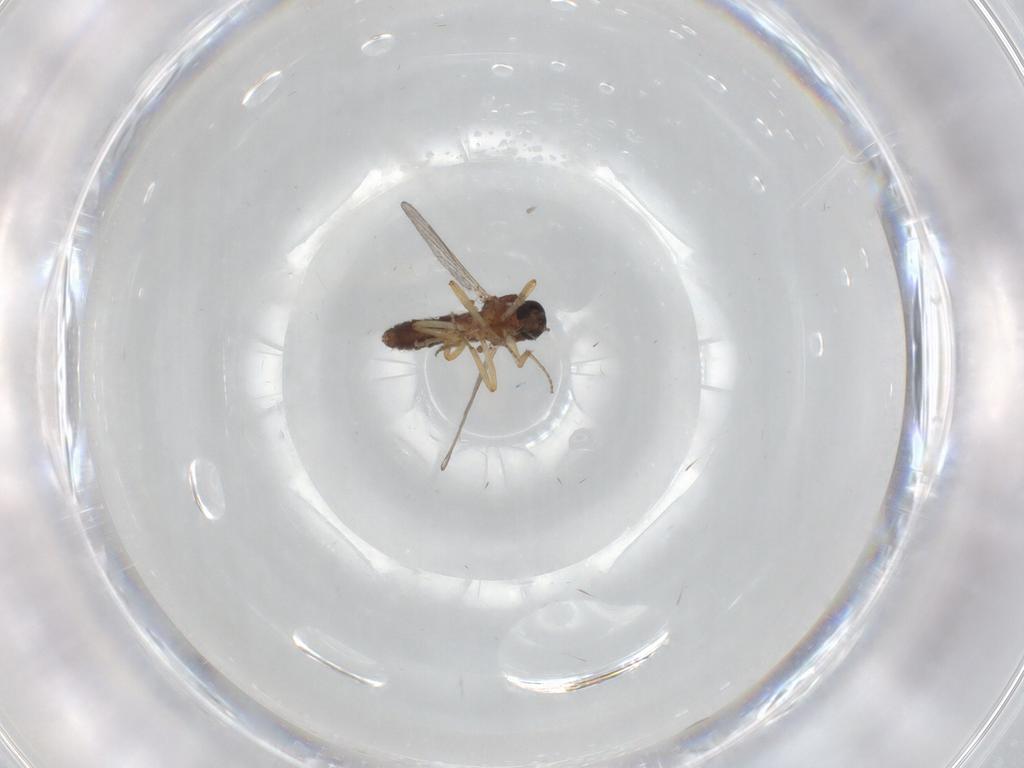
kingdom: Animalia
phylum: Arthropoda
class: Insecta
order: Diptera
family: Ceratopogonidae
